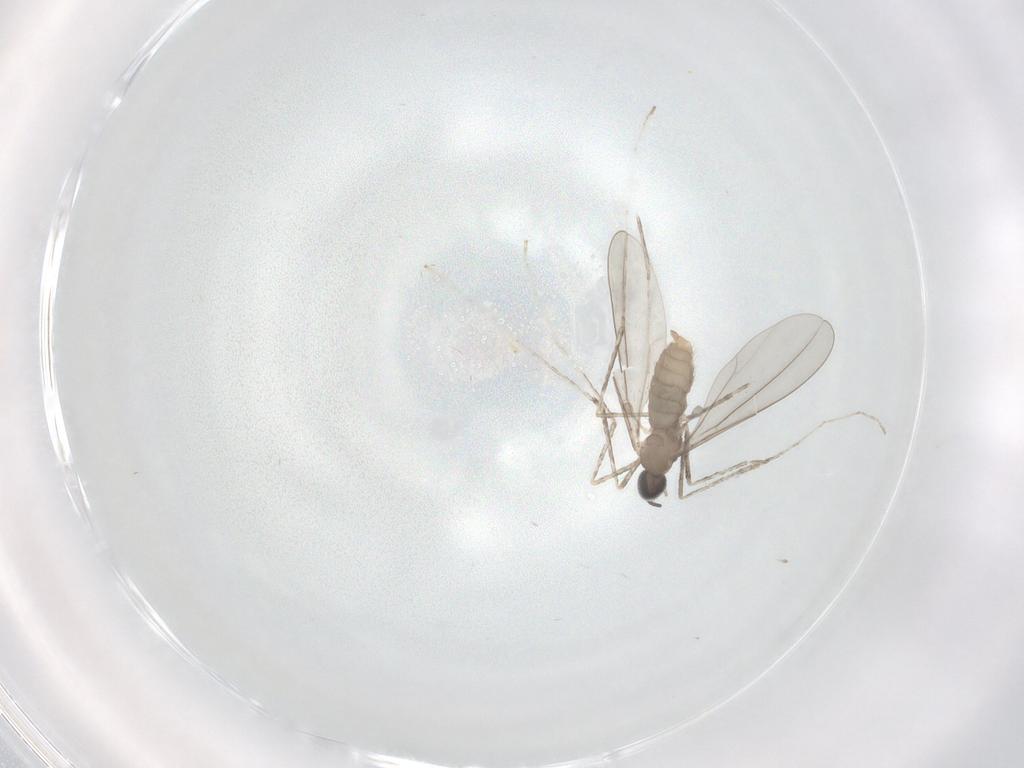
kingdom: Animalia
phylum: Arthropoda
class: Insecta
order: Diptera
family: Cecidomyiidae
